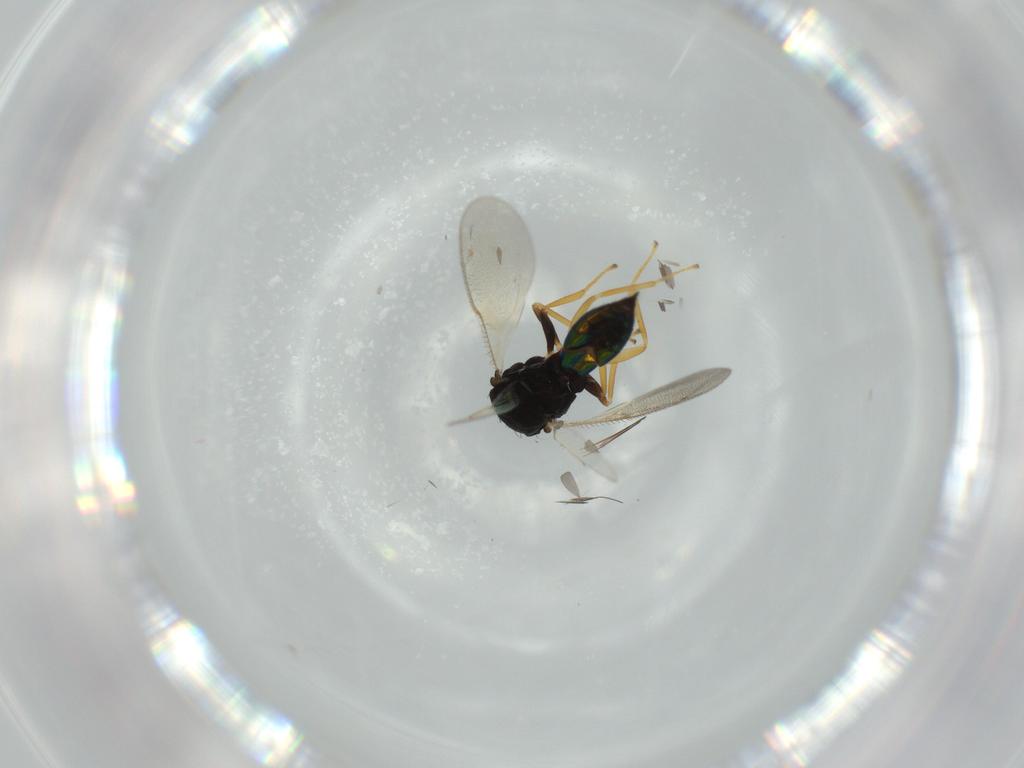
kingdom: Animalia
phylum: Arthropoda
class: Insecta
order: Hymenoptera
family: Pteromalidae
